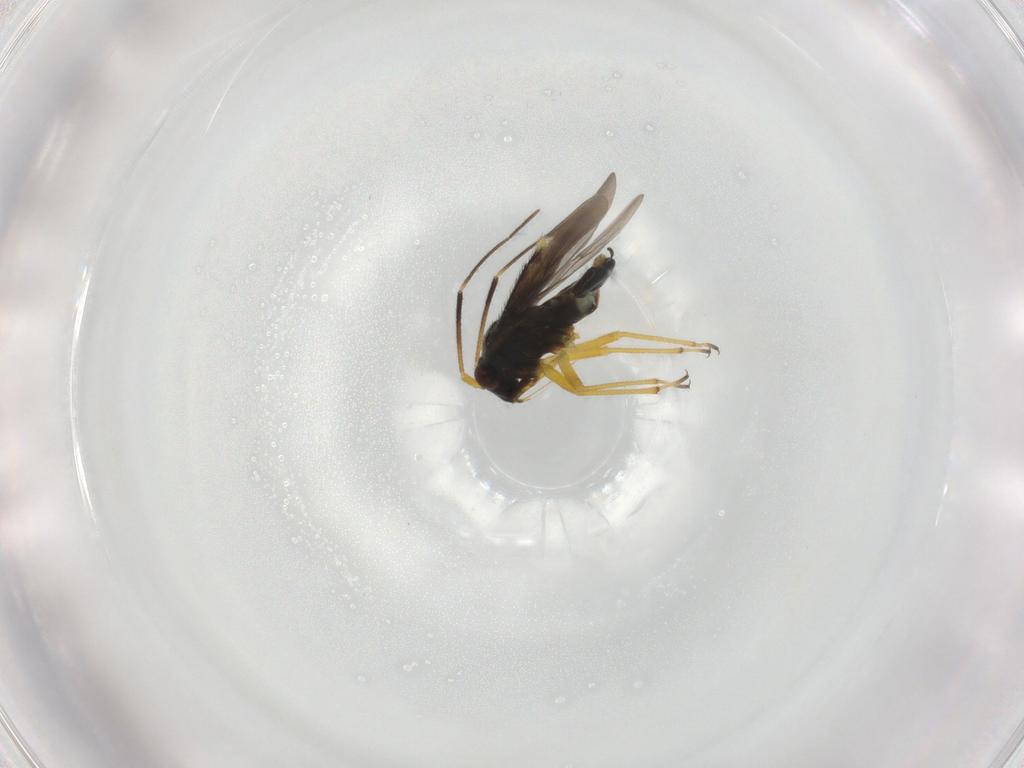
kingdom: Animalia
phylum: Arthropoda
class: Insecta
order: Hemiptera
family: Miridae
